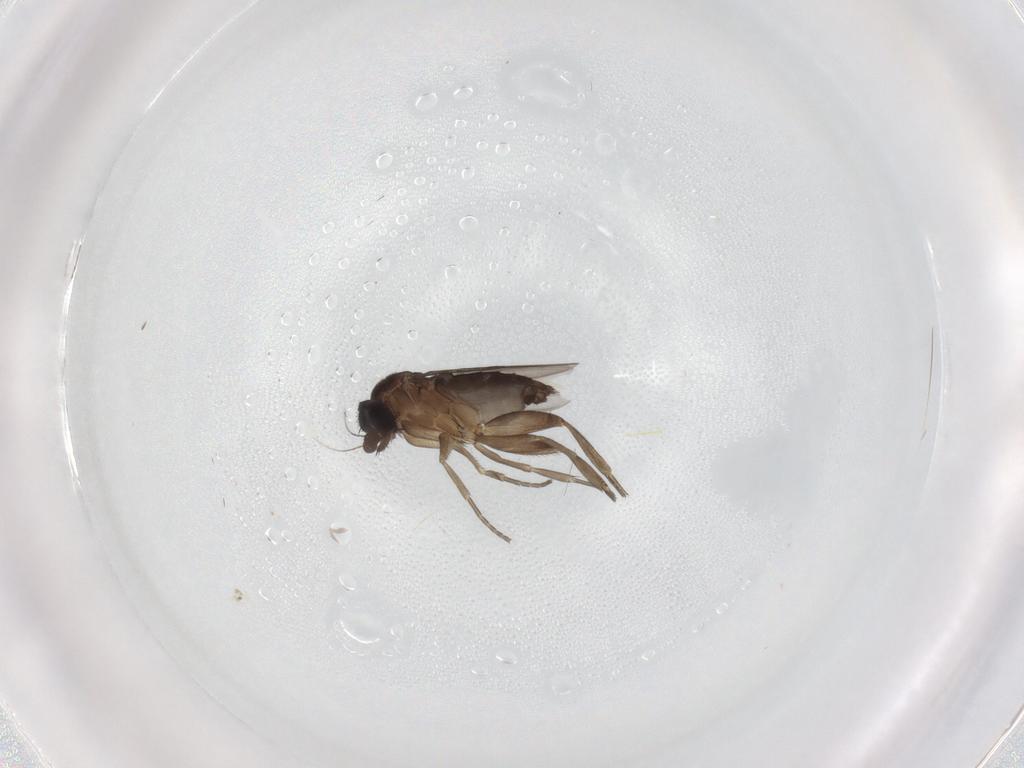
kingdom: Animalia
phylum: Arthropoda
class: Insecta
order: Diptera
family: Phoridae
